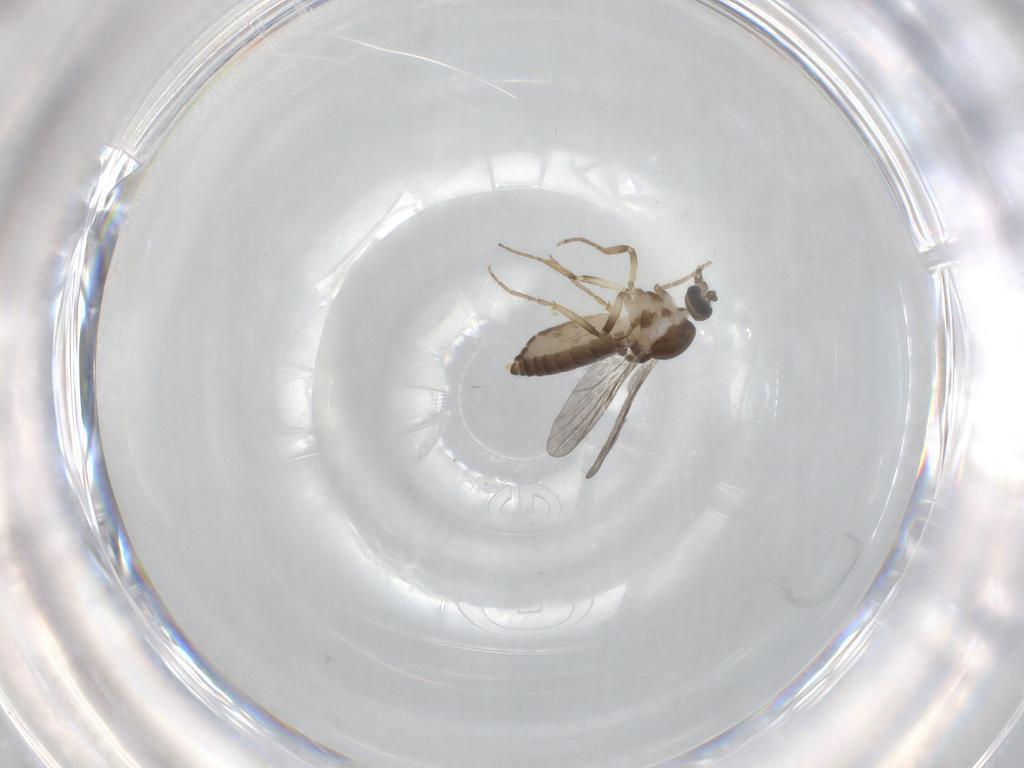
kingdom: Animalia
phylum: Arthropoda
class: Insecta
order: Diptera
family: Ceratopogonidae
